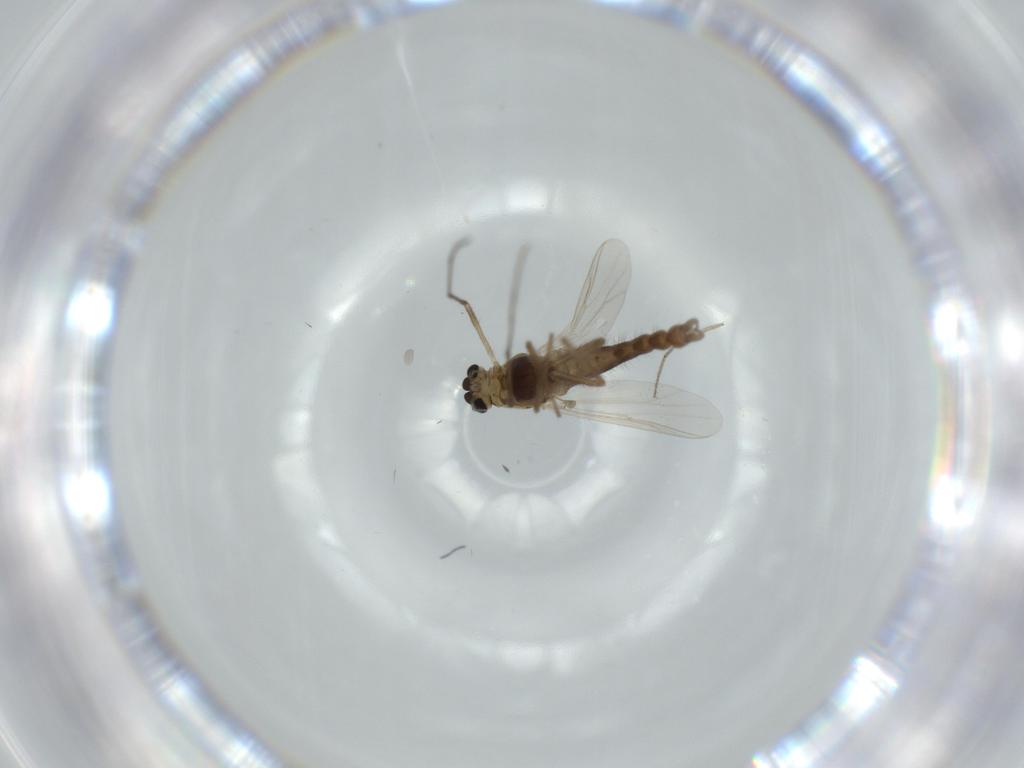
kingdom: Animalia
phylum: Arthropoda
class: Insecta
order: Diptera
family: Chironomidae
